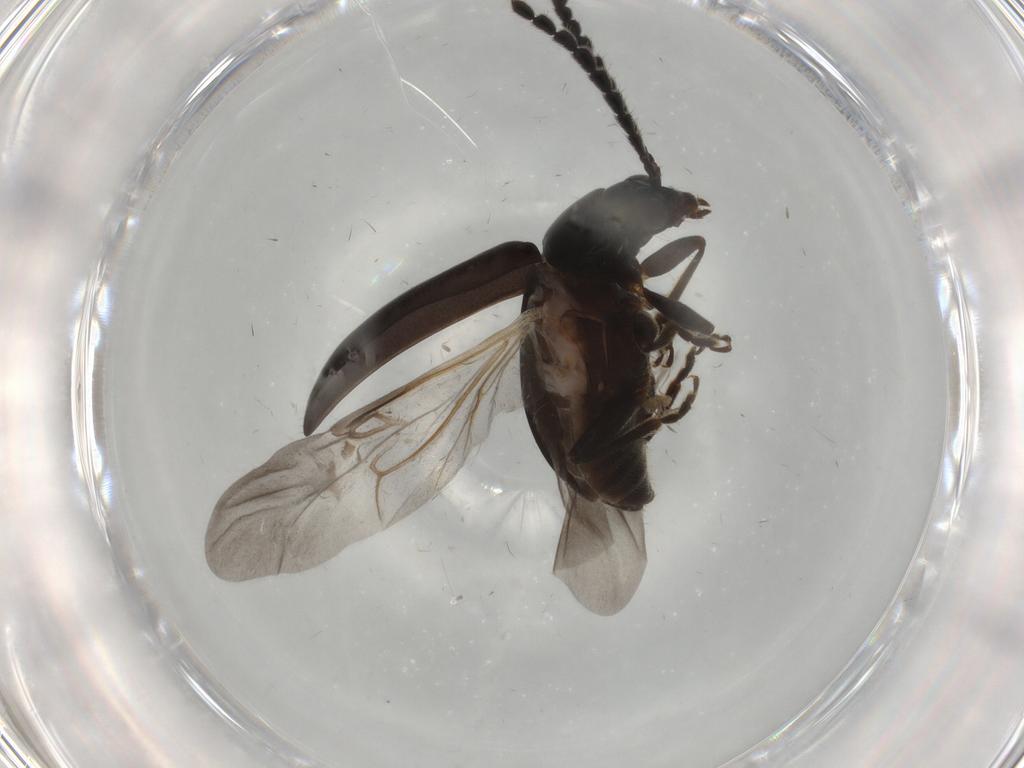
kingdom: Animalia
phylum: Arthropoda
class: Insecta
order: Coleoptera
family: Chrysomelidae
